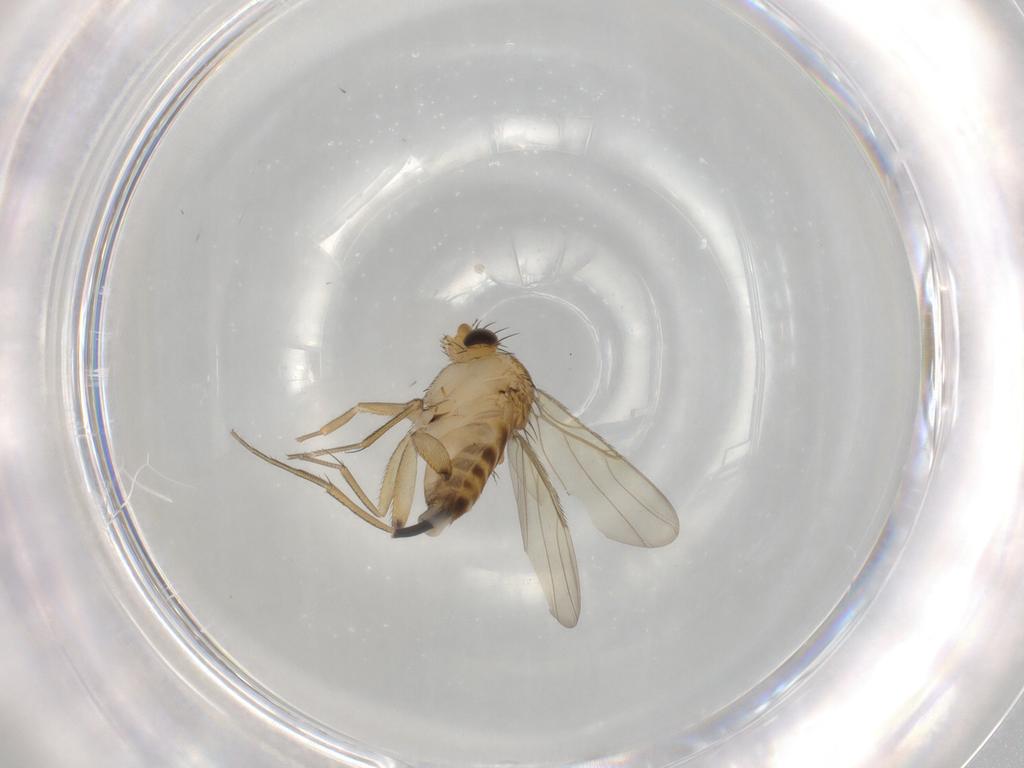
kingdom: Animalia
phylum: Arthropoda
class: Insecta
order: Diptera
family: Phoridae
